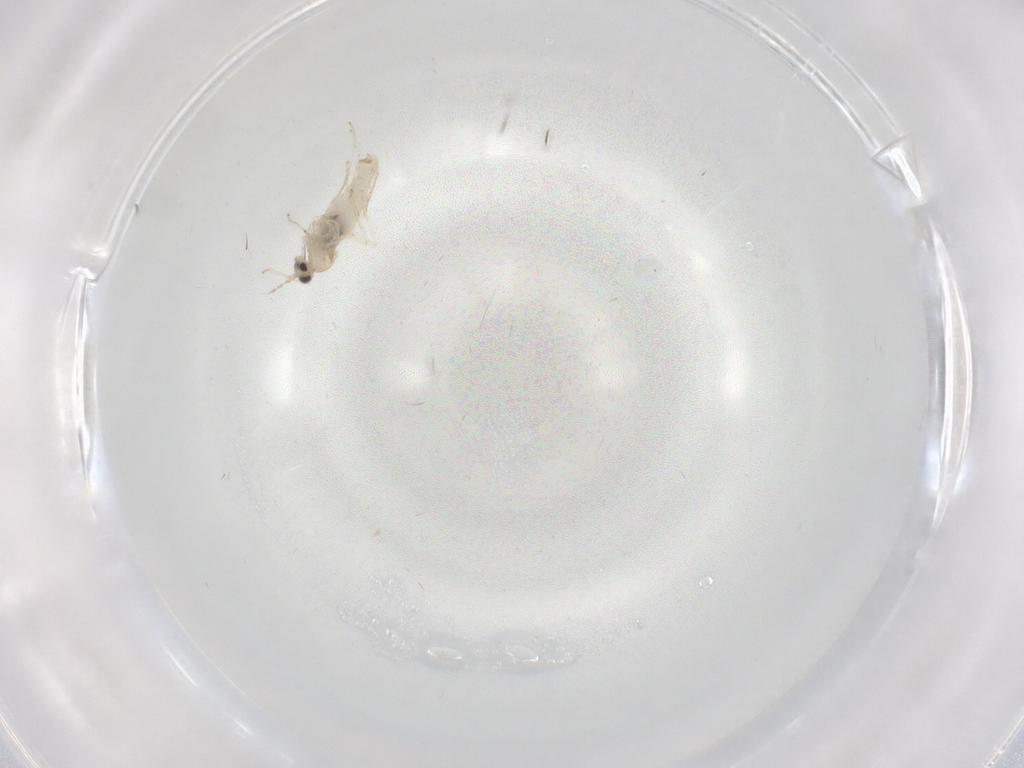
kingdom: Animalia
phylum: Arthropoda
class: Insecta
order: Diptera
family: Cecidomyiidae
